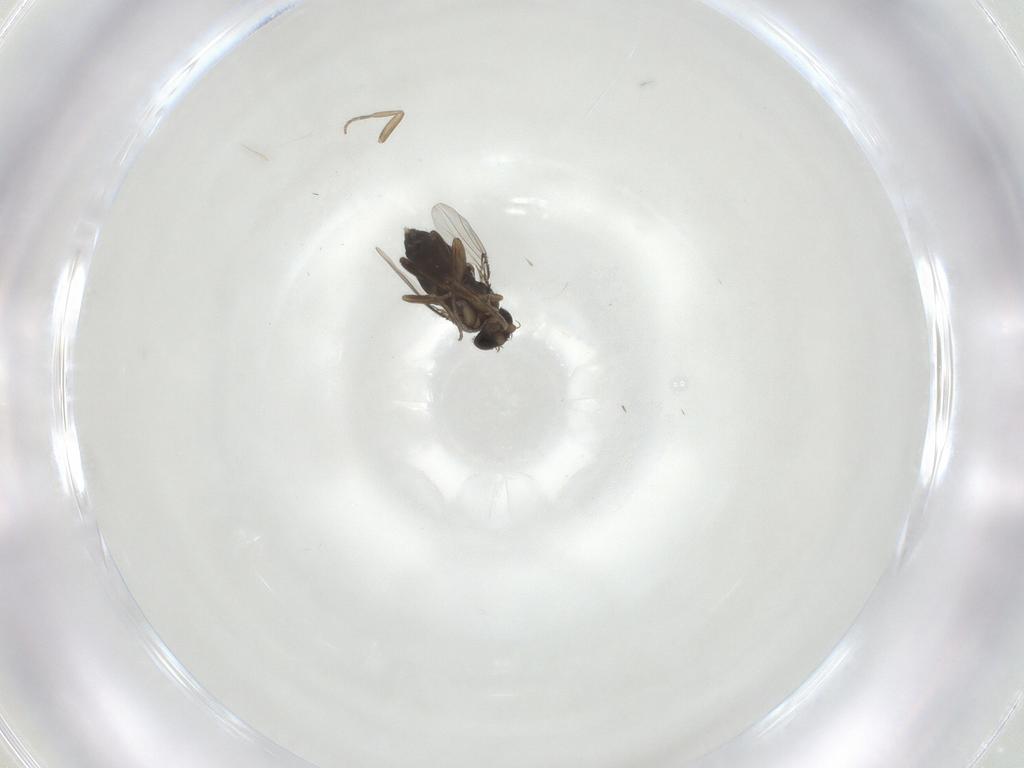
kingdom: Animalia
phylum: Arthropoda
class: Insecta
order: Diptera
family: Phoridae
